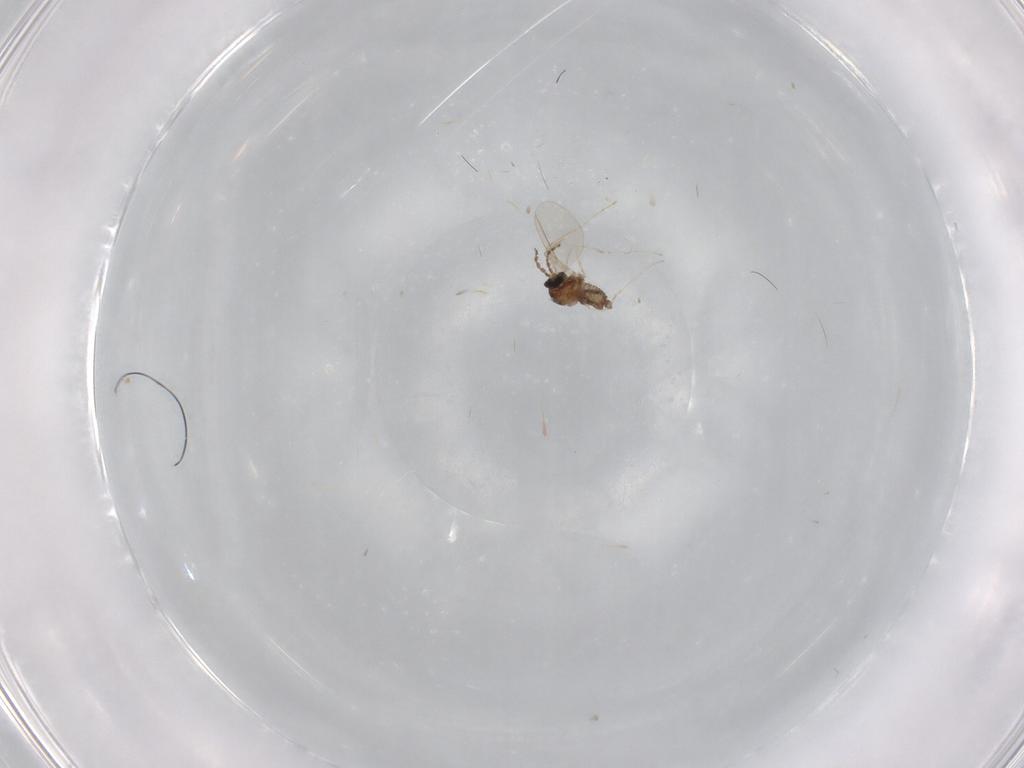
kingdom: Animalia
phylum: Arthropoda
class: Insecta
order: Diptera
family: Cecidomyiidae
